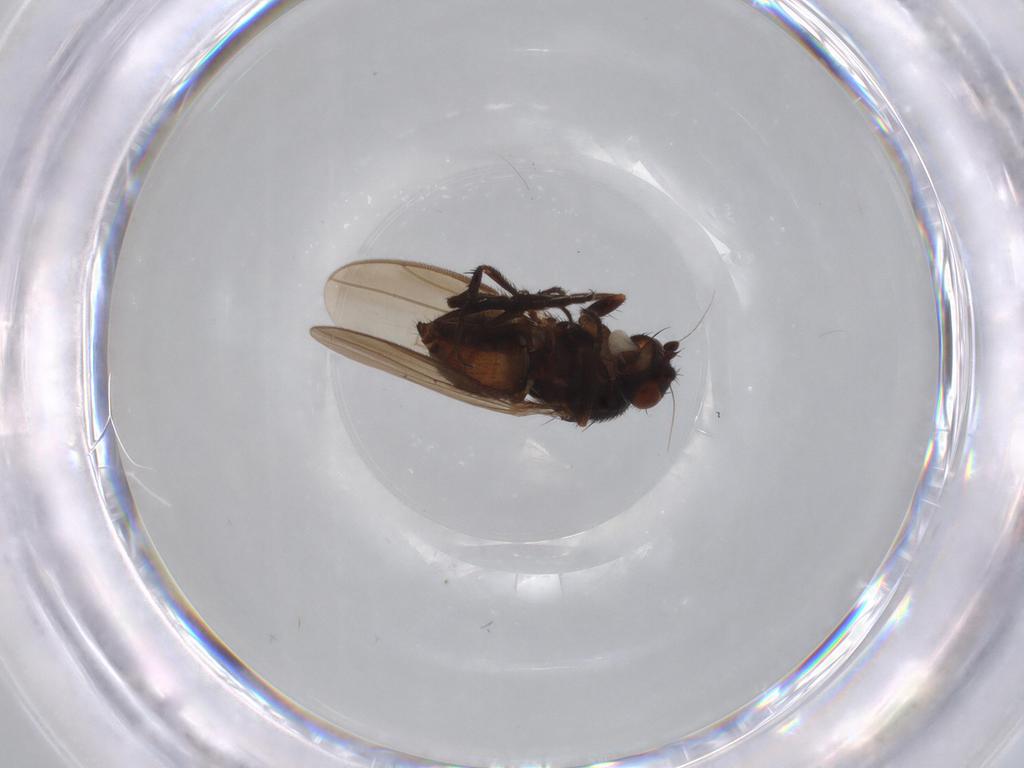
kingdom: Animalia
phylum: Arthropoda
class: Insecta
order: Diptera
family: Sphaeroceridae
